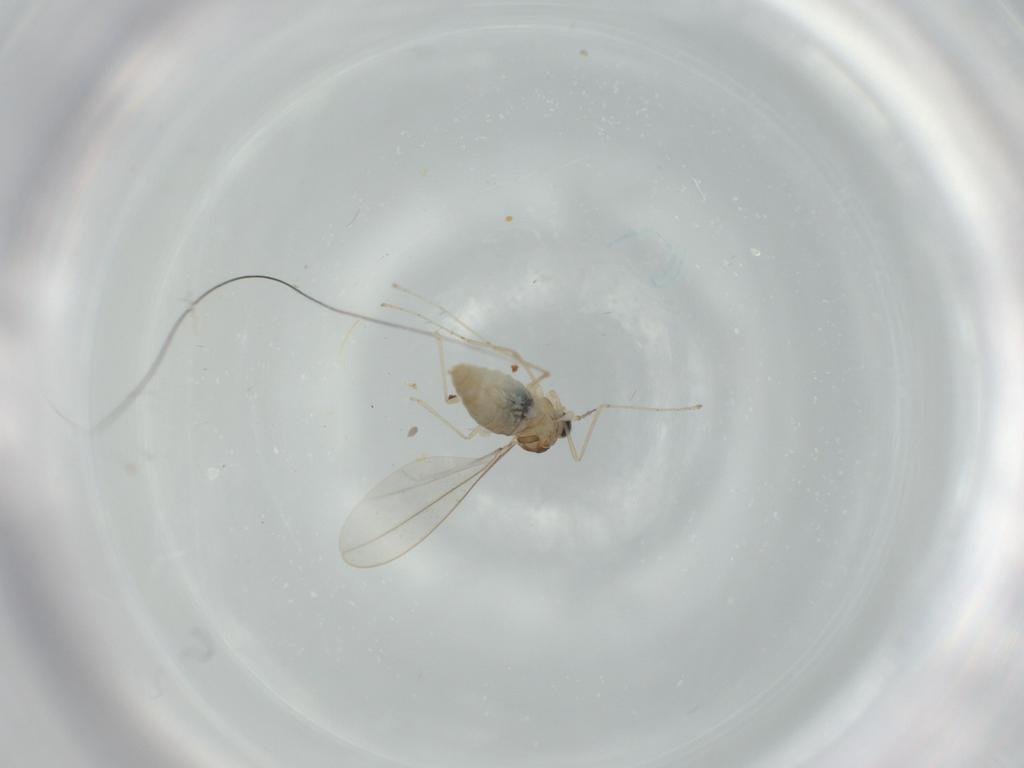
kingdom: Animalia
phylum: Arthropoda
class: Insecta
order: Diptera
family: Cecidomyiidae
